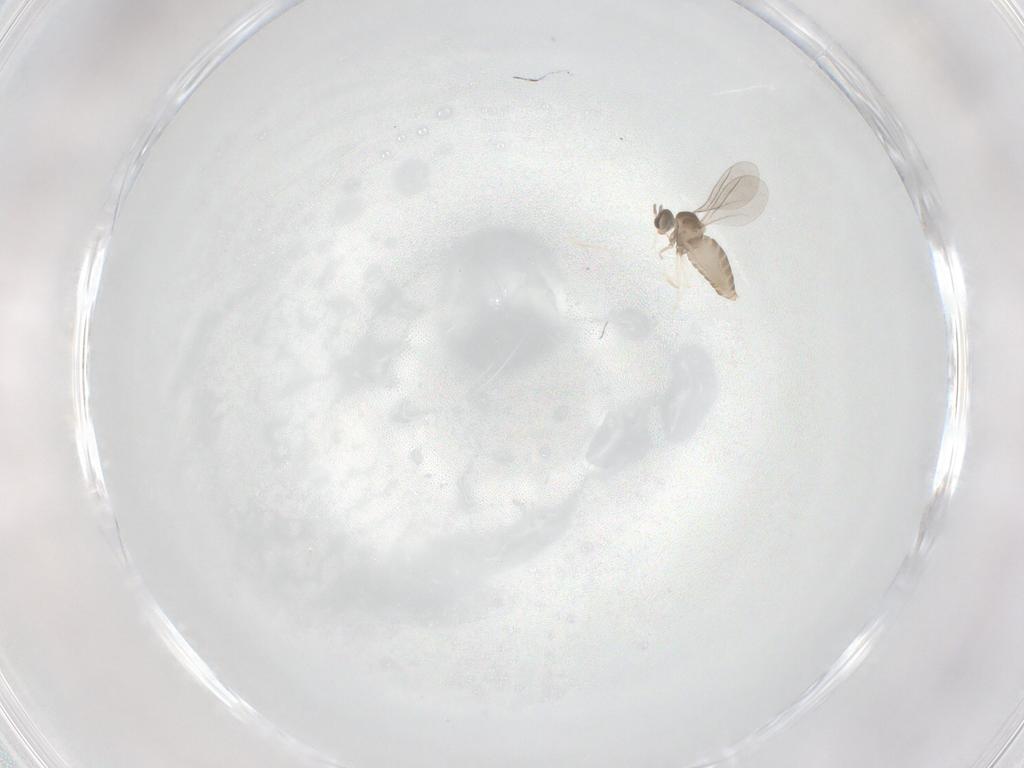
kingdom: Animalia
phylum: Arthropoda
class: Insecta
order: Diptera
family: Cecidomyiidae
